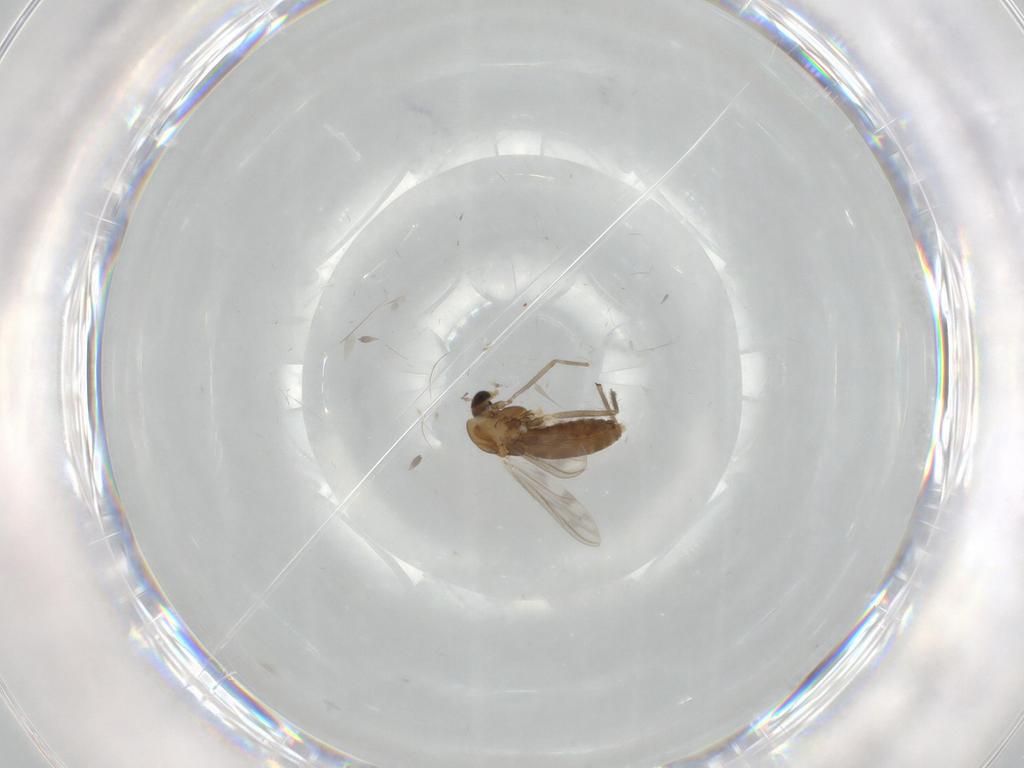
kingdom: Animalia
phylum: Arthropoda
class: Insecta
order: Diptera
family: Chironomidae
